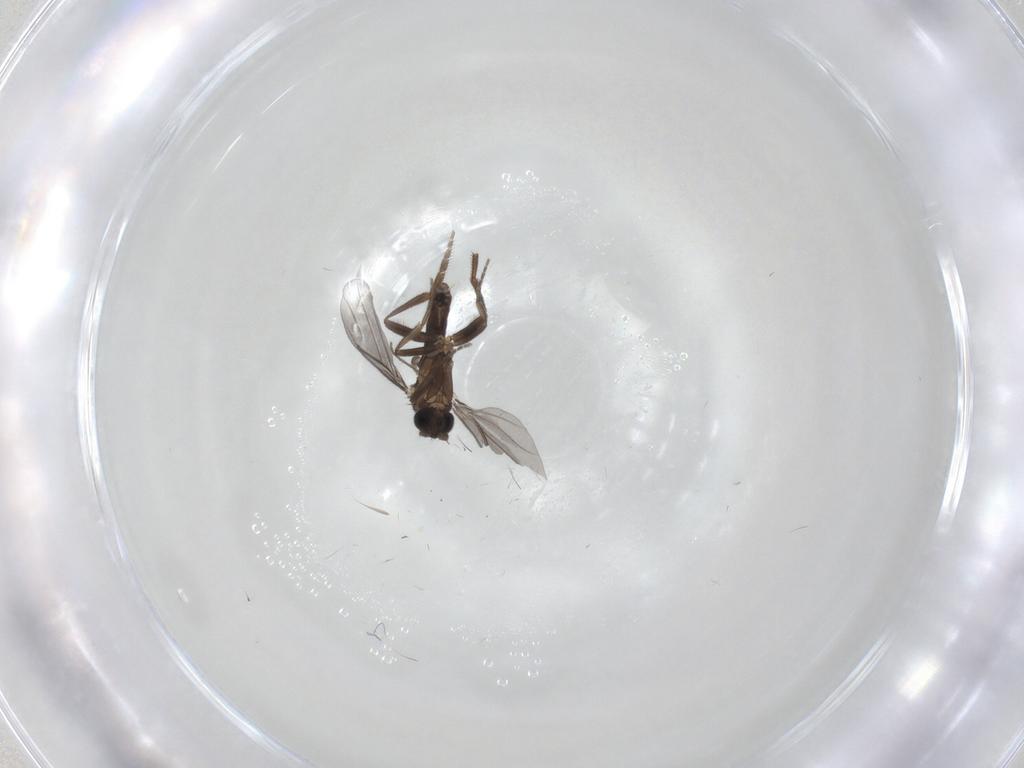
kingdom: Animalia
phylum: Arthropoda
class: Insecta
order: Diptera
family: Chironomidae
